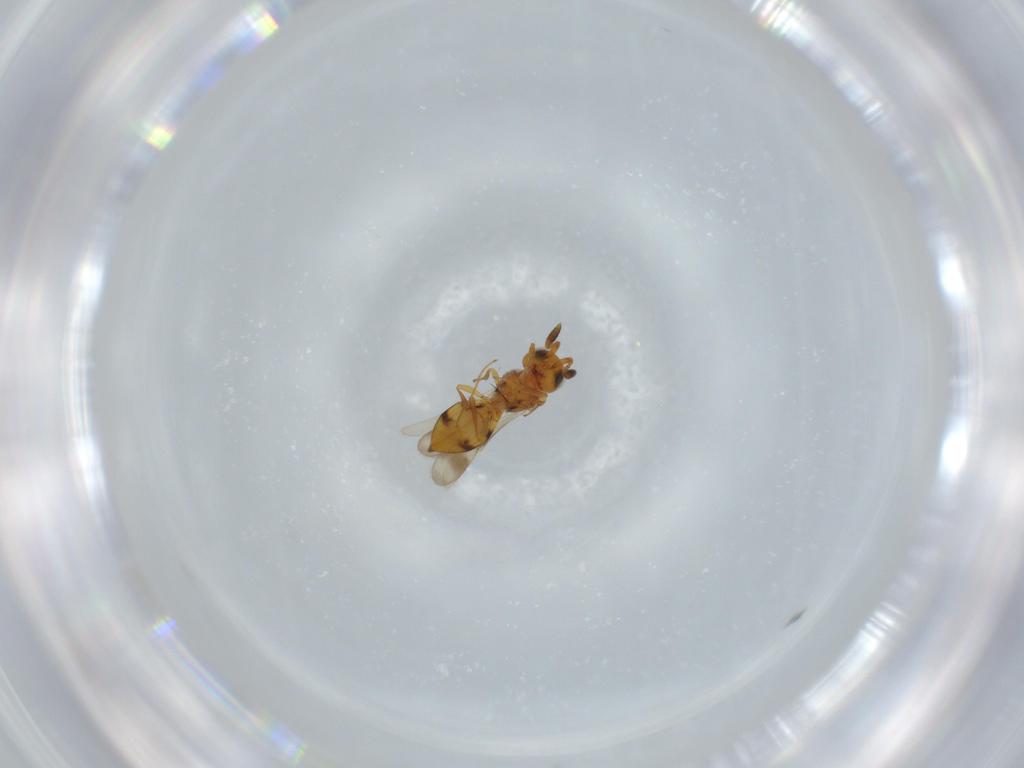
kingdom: Animalia
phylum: Arthropoda
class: Insecta
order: Hymenoptera
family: Scelionidae
